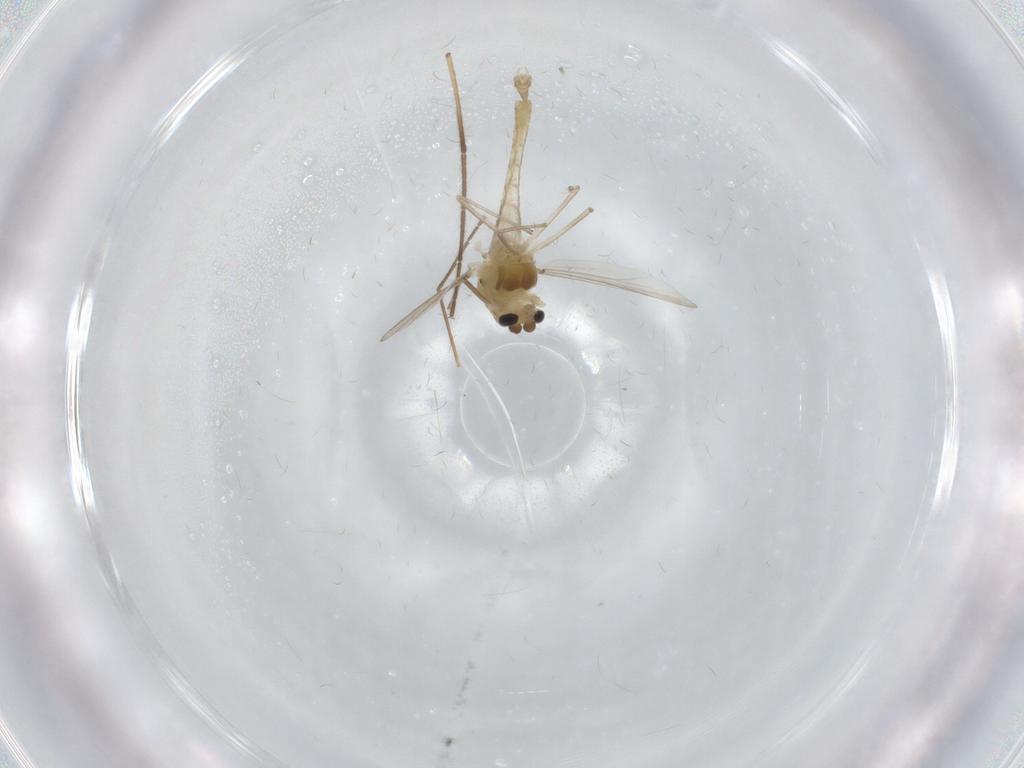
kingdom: Animalia
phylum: Arthropoda
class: Insecta
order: Diptera
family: Chironomidae
